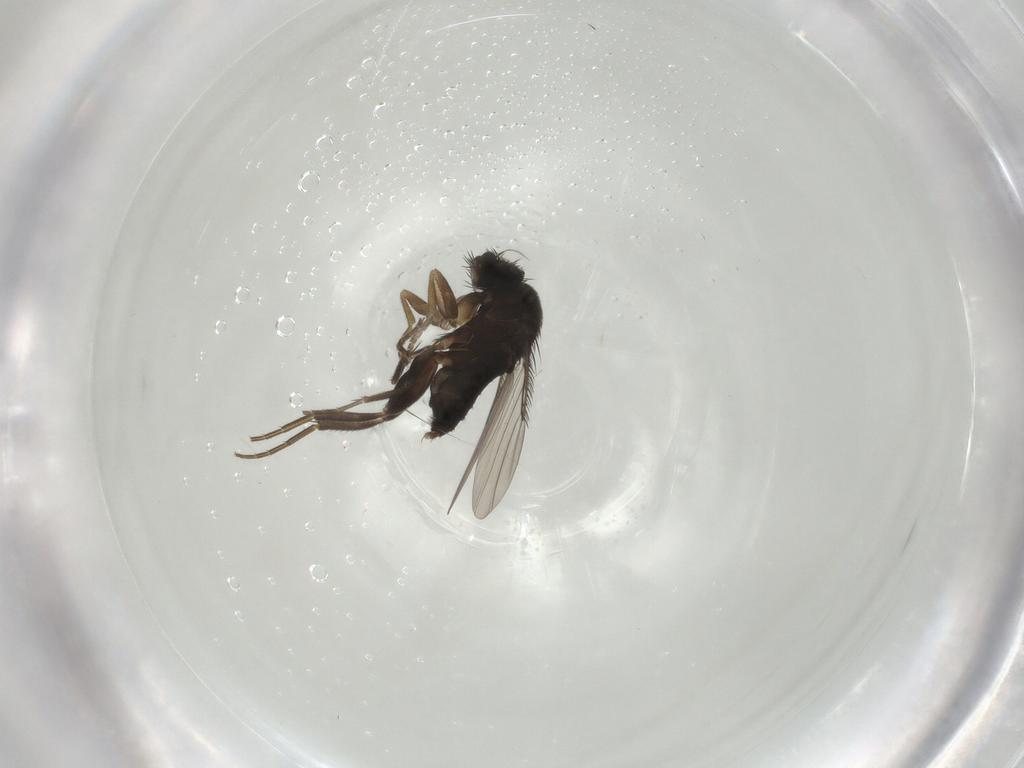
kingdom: Animalia
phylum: Arthropoda
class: Insecta
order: Diptera
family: Phoridae
